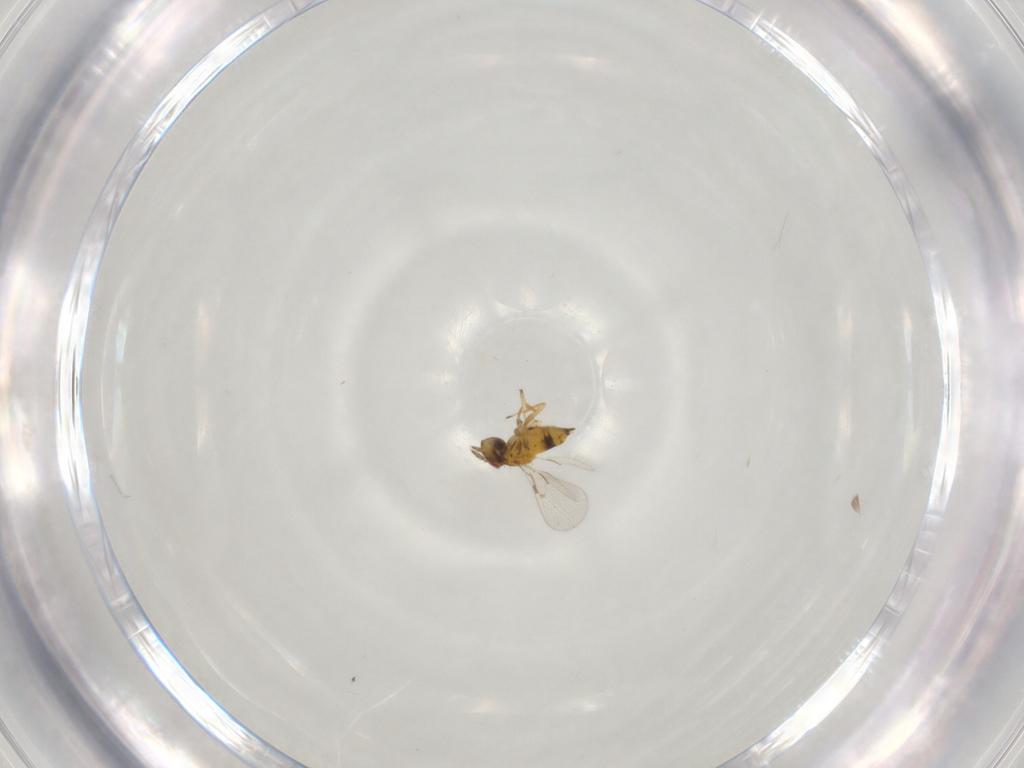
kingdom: Animalia
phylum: Arthropoda
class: Insecta
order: Hymenoptera
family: Trichogrammatidae
